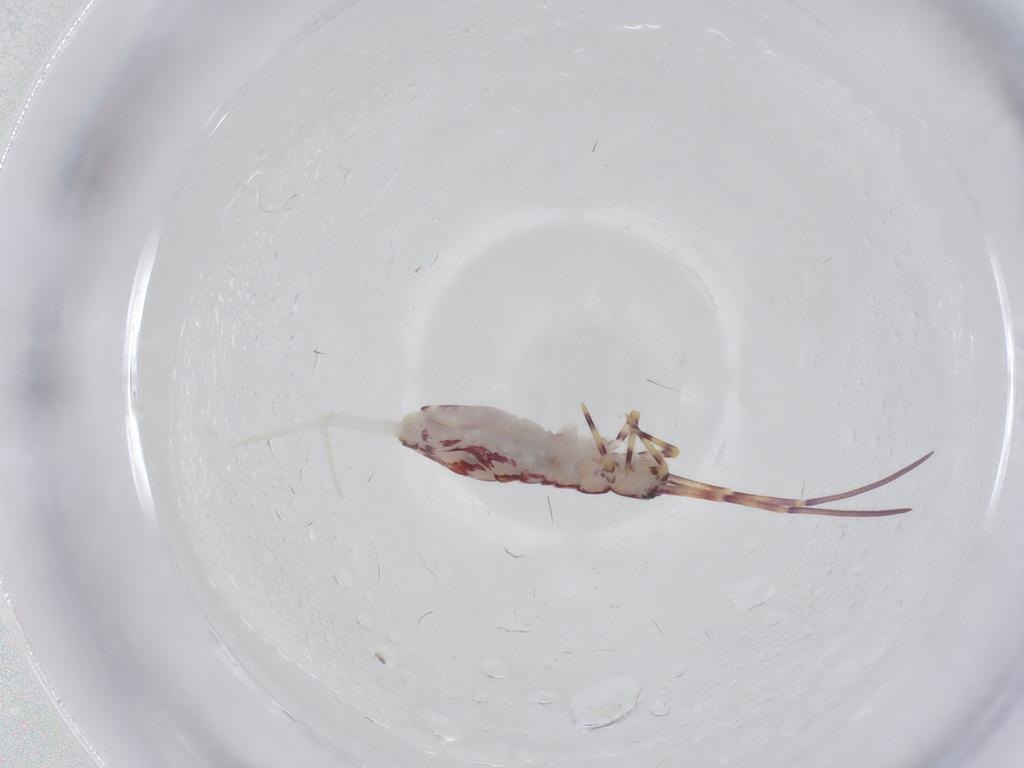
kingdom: Animalia
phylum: Arthropoda
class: Collembola
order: Entomobryomorpha
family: Entomobryidae
